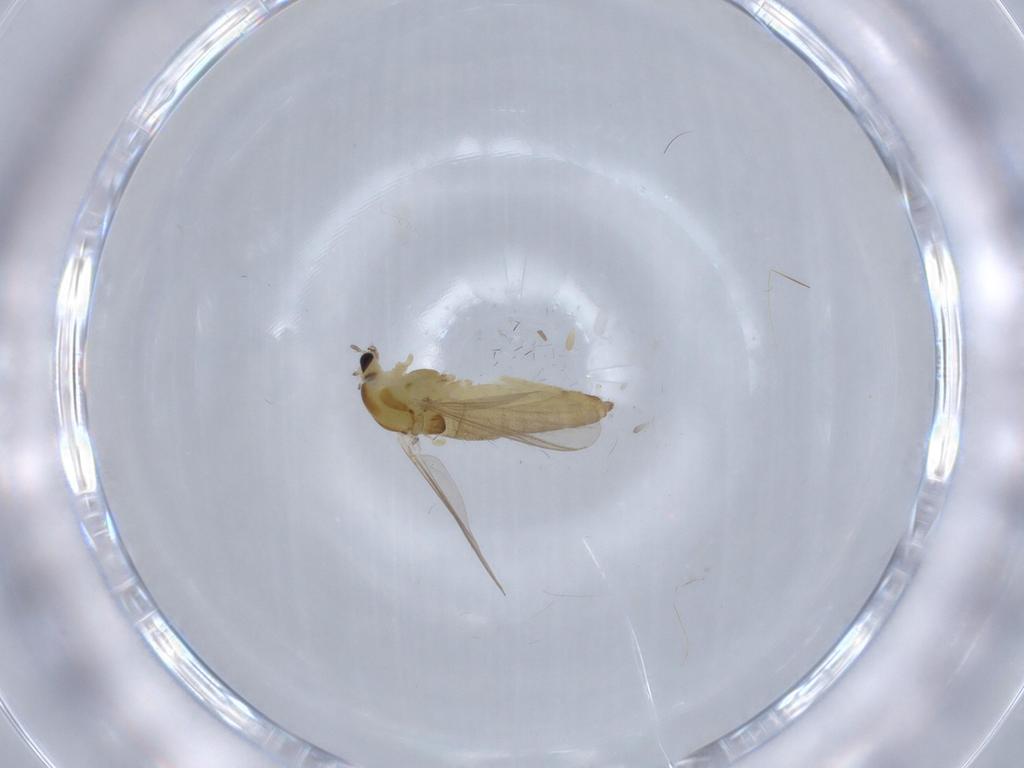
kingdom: Animalia
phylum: Arthropoda
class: Insecta
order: Diptera
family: Chironomidae
